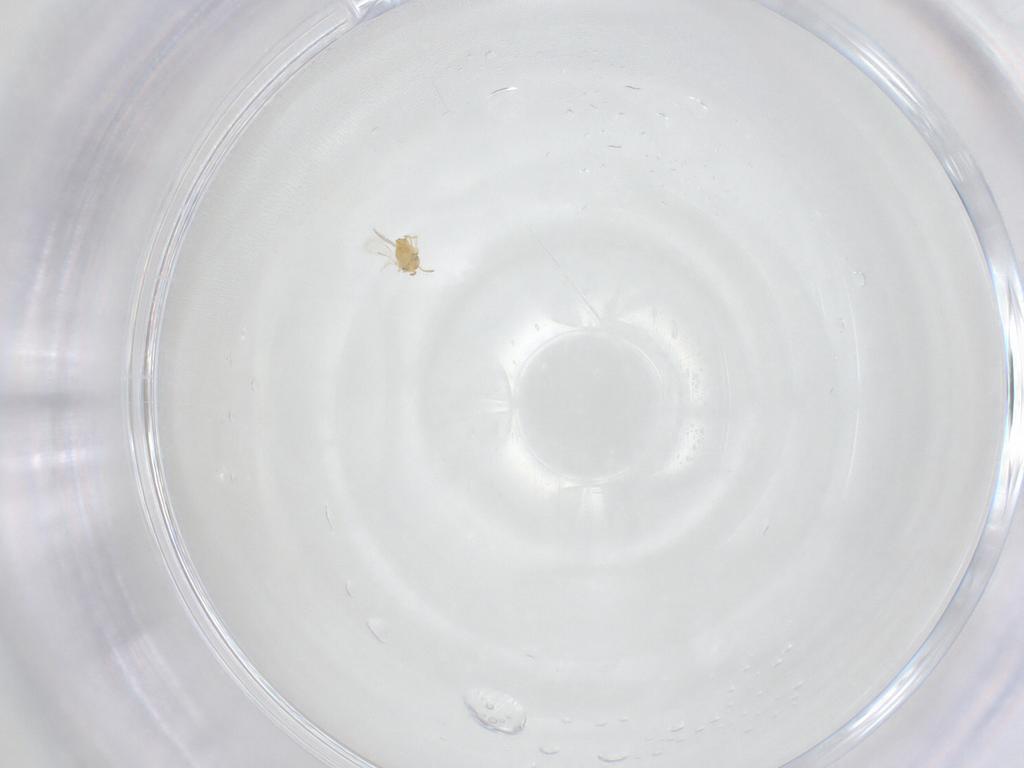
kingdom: Animalia
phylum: Arthropoda
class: Insecta
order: Hymenoptera
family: Aphelinidae
